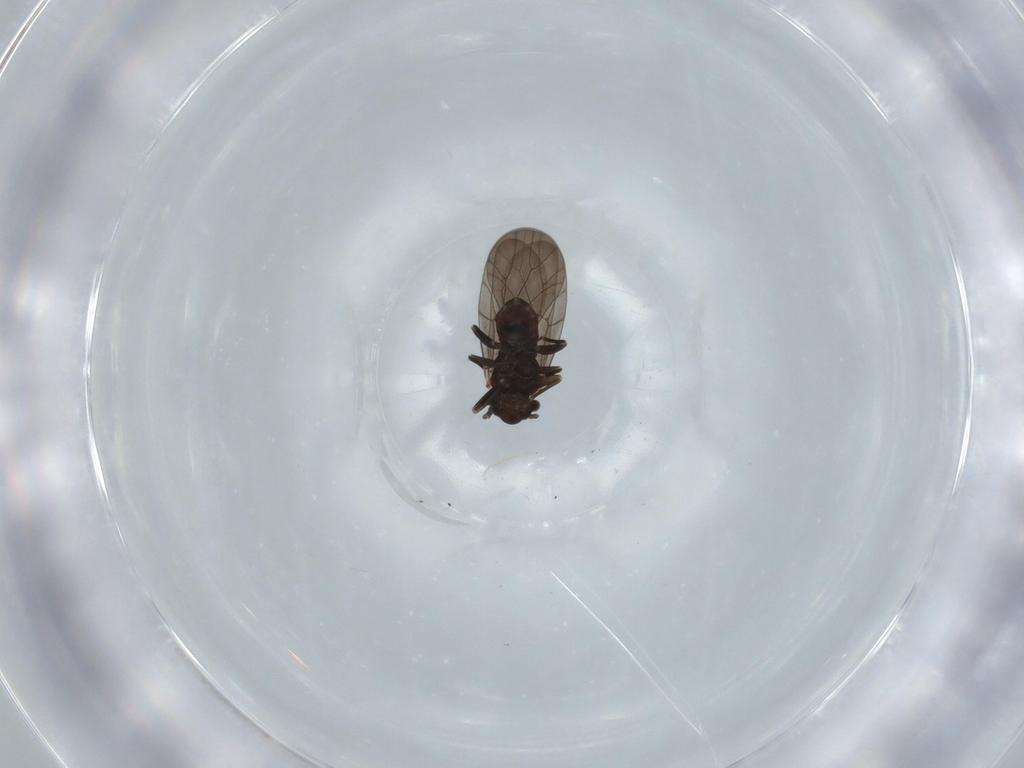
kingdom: Animalia
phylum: Arthropoda
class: Insecta
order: Psocodea
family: Lepidopsocidae
